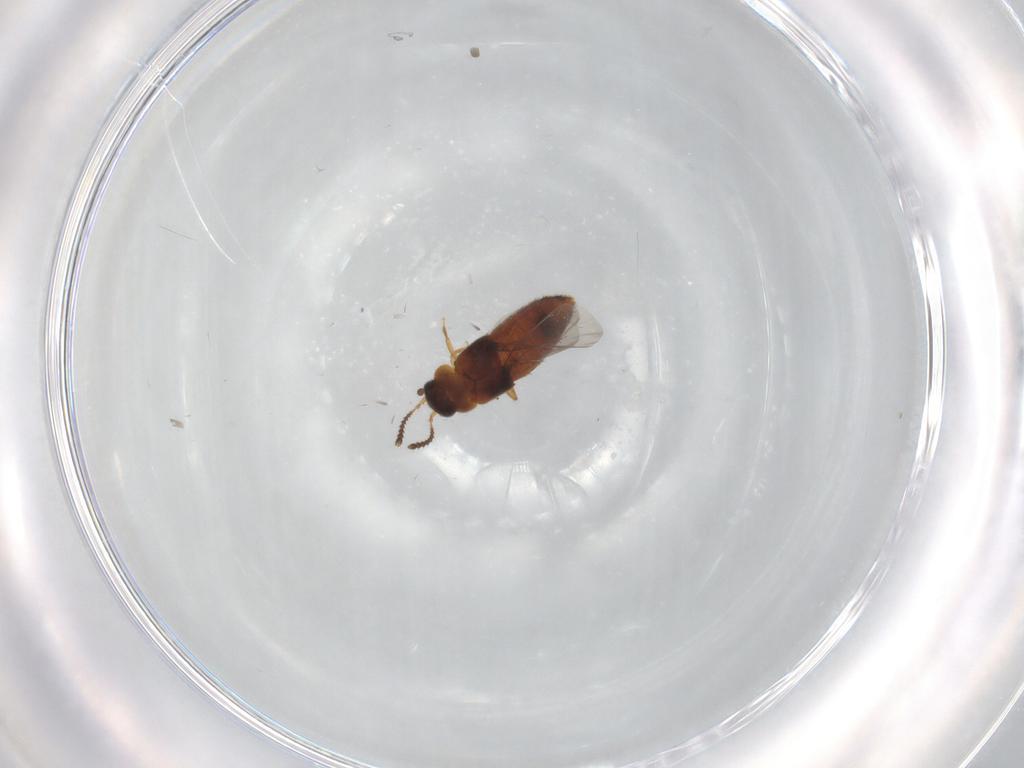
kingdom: Animalia
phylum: Arthropoda
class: Insecta
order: Coleoptera
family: Staphylinidae
